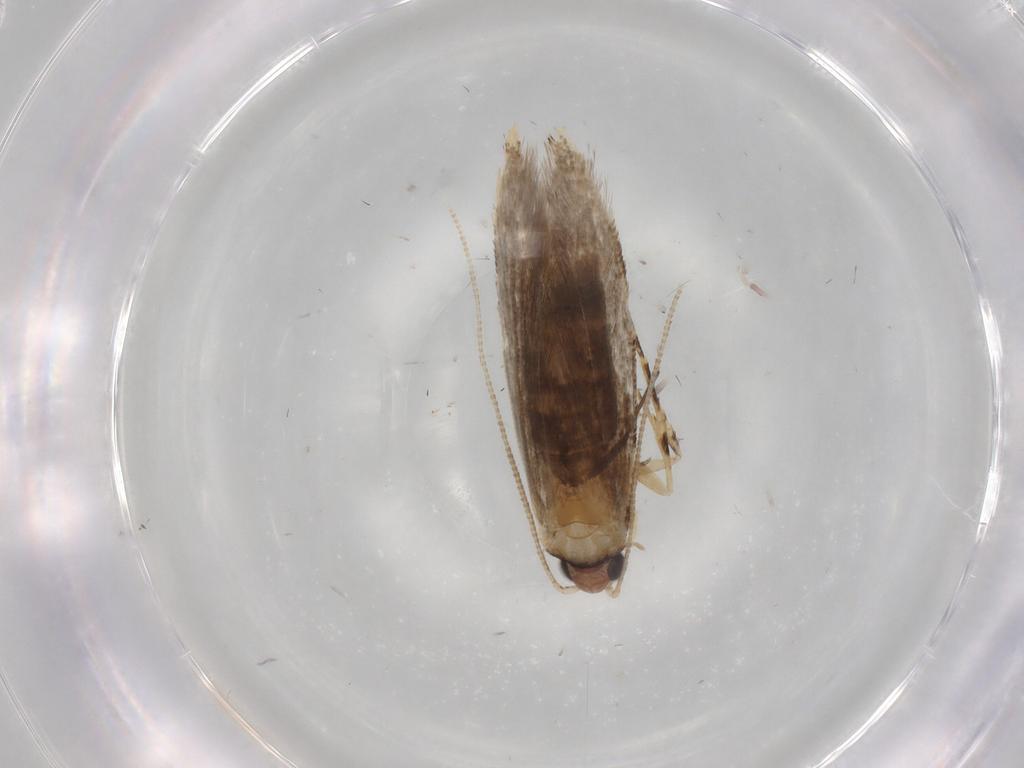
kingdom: Animalia
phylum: Arthropoda
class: Insecta
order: Lepidoptera
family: Tineidae
